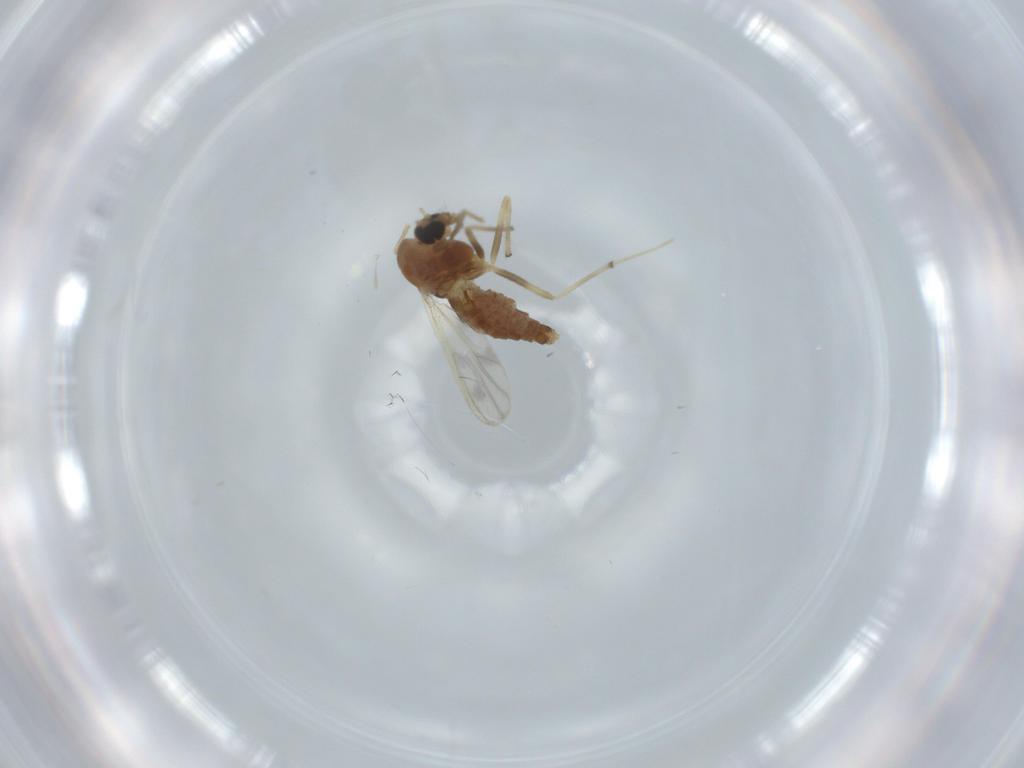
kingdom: Animalia
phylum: Arthropoda
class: Insecta
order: Diptera
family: Chironomidae
